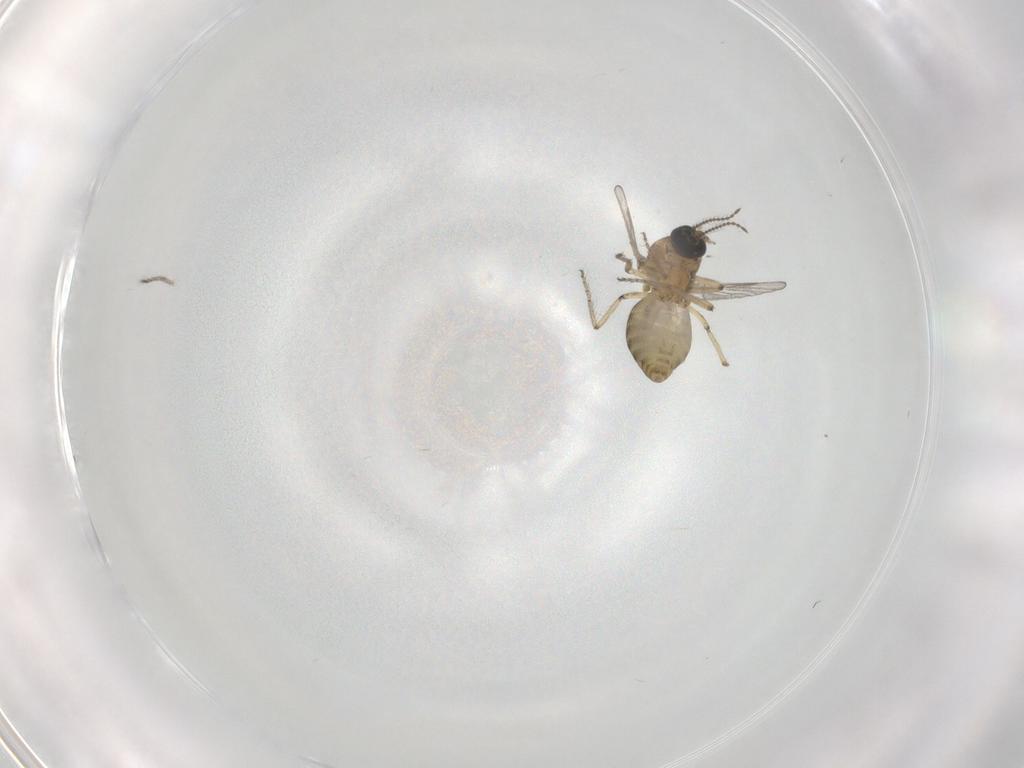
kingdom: Animalia
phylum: Arthropoda
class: Insecta
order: Diptera
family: Ceratopogonidae
